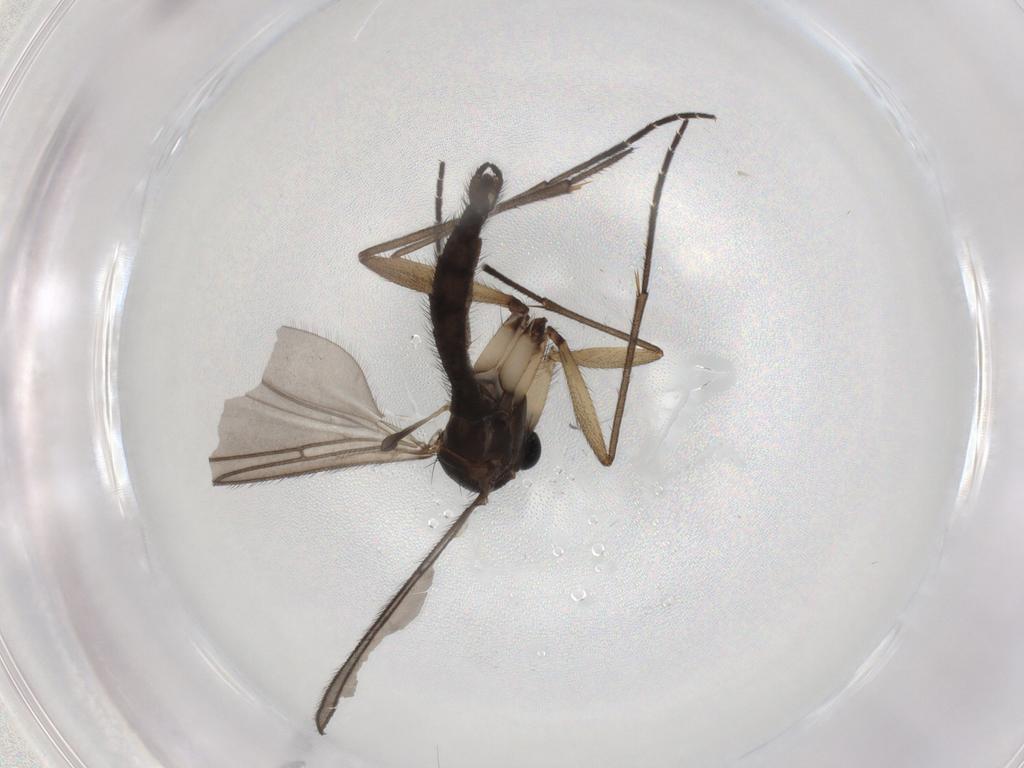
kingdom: Animalia
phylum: Arthropoda
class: Insecta
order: Diptera
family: Sciaridae
